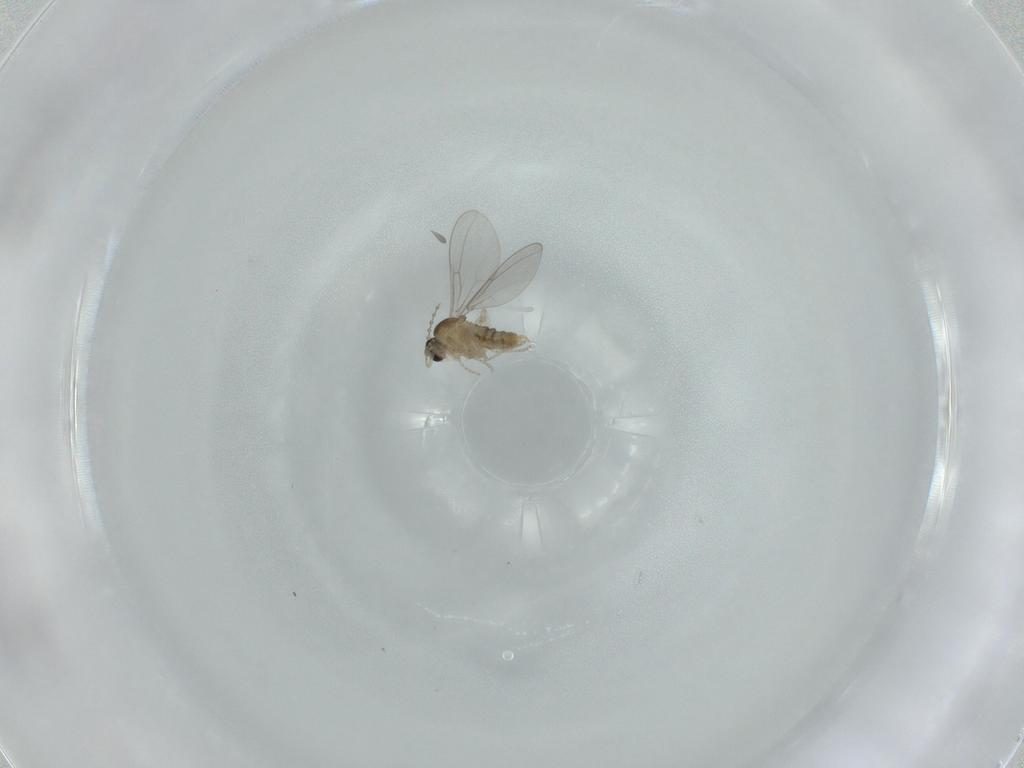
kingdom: Animalia
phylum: Arthropoda
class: Insecta
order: Diptera
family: Cecidomyiidae
